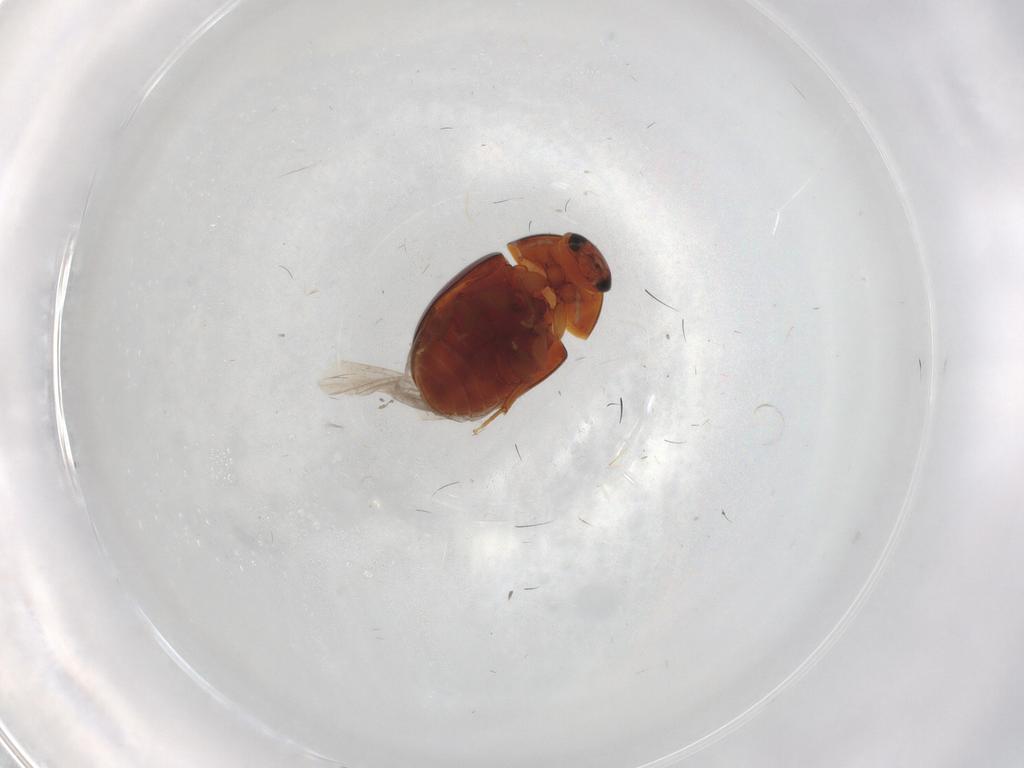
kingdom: Animalia
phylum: Arthropoda
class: Insecta
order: Coleoptera
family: Phalacridae
